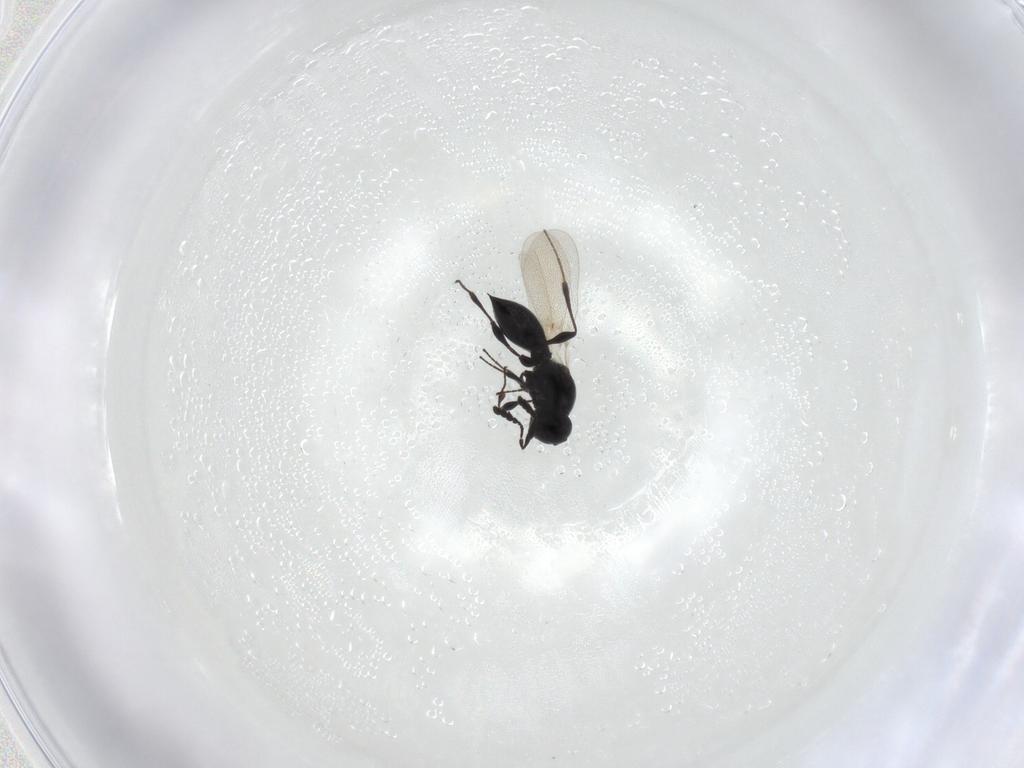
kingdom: Animalia
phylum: Arthropoda
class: Insecta
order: Hymenoptera
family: Platygastridae
